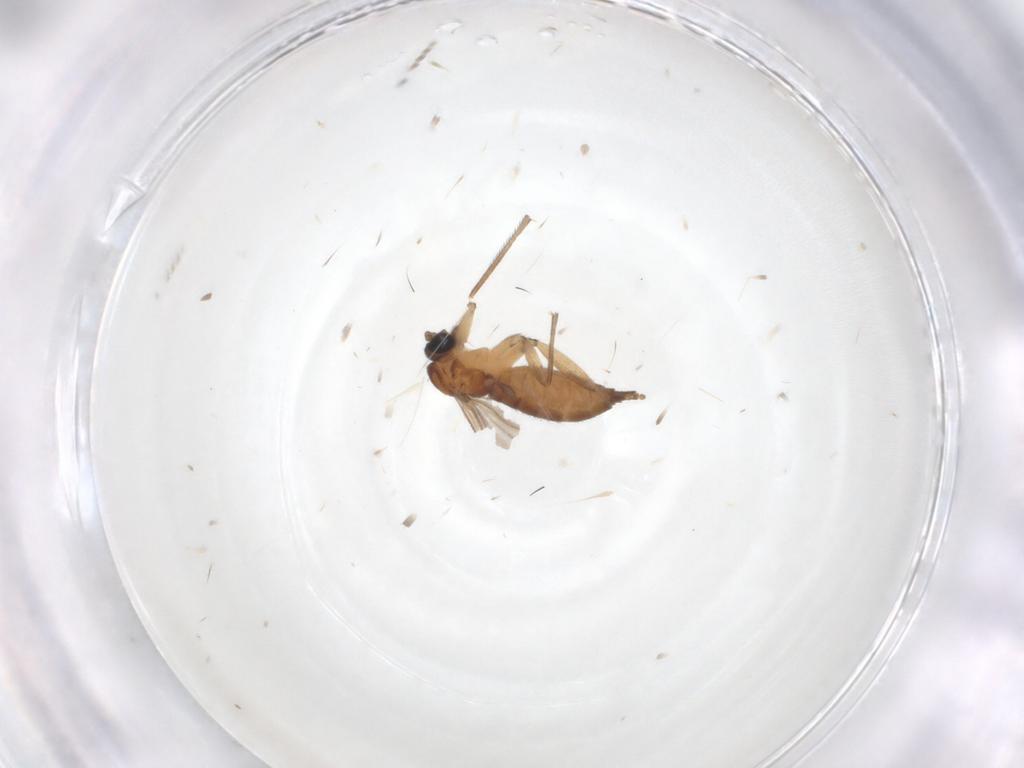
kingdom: Animalia
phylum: Arthropoda
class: Insecta
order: Diptera
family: Sciaridae
